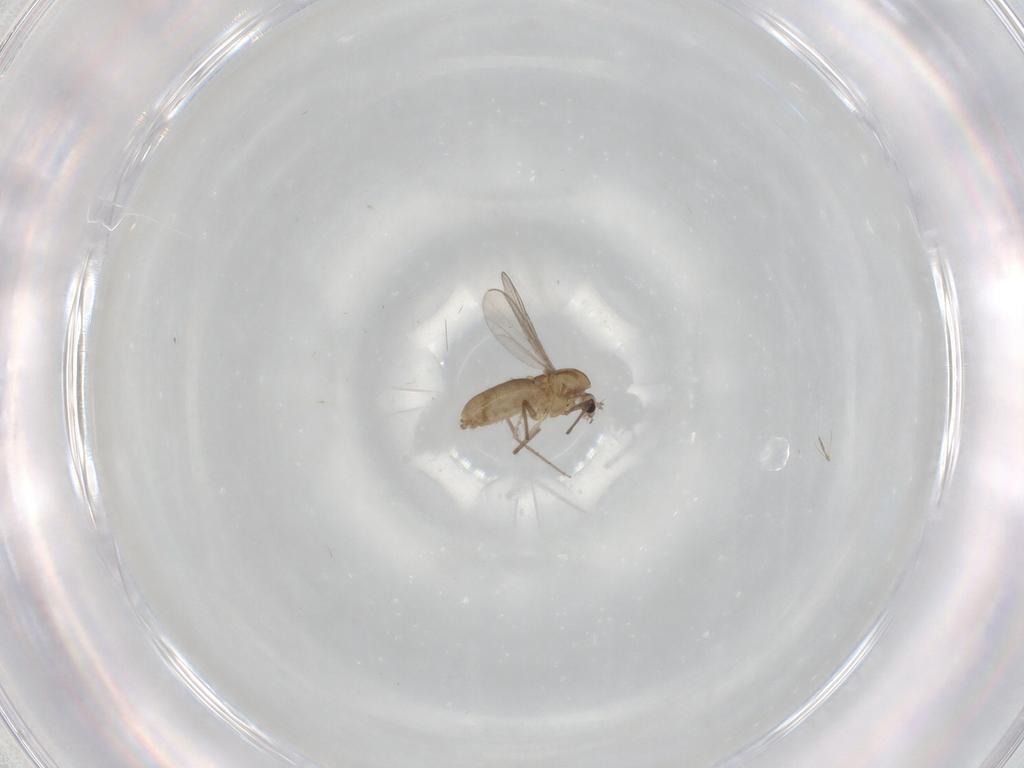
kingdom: Animalia
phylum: Arthropoda
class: Insecta
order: Diptera
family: Chironomidae
